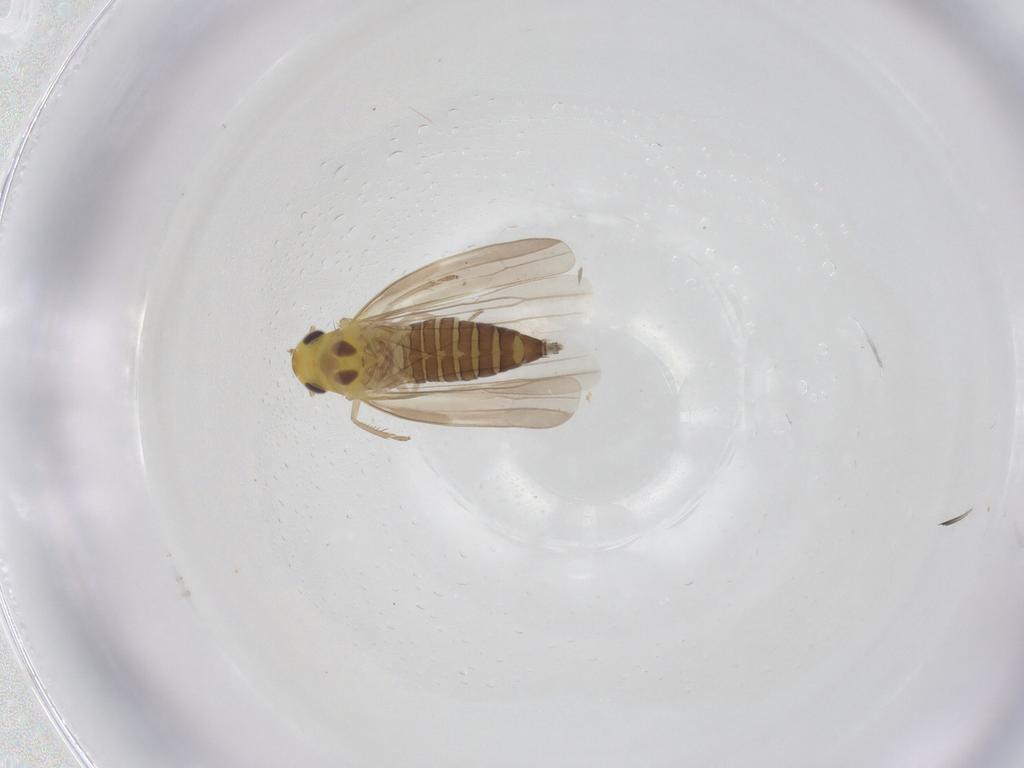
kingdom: Animalia
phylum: Arthropoda
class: Insecta
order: Hemiptera
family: Cicadellidae
